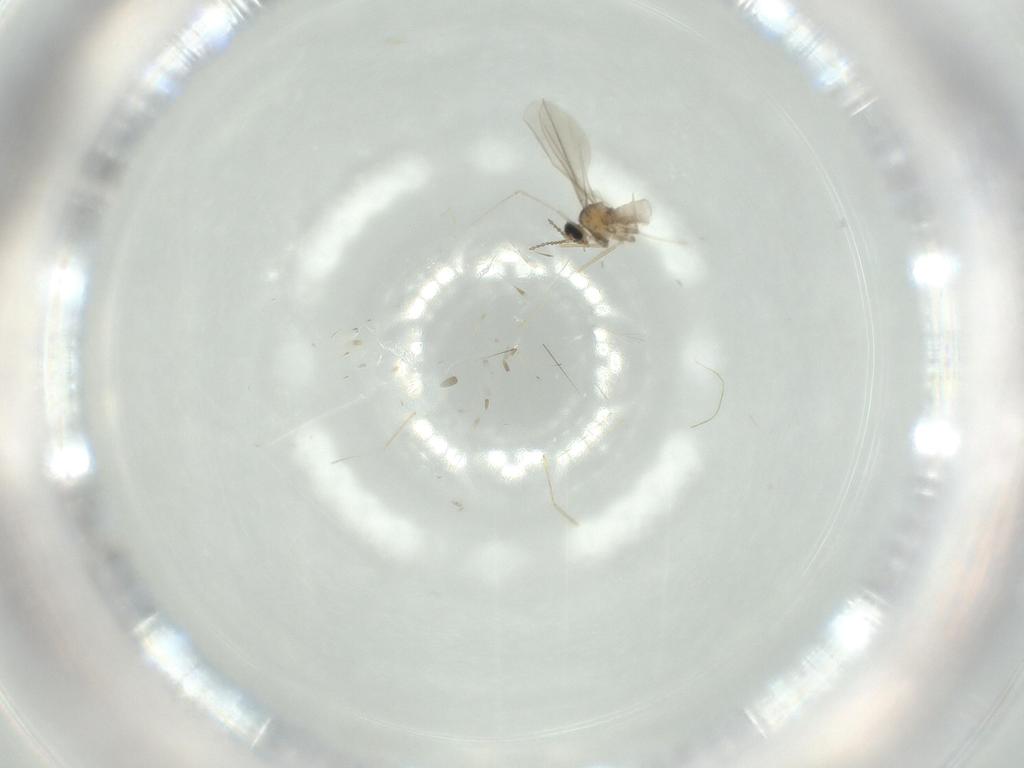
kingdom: Animalia
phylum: Arthropoda
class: Insecta
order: Diptera
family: Cecidomyiidae
